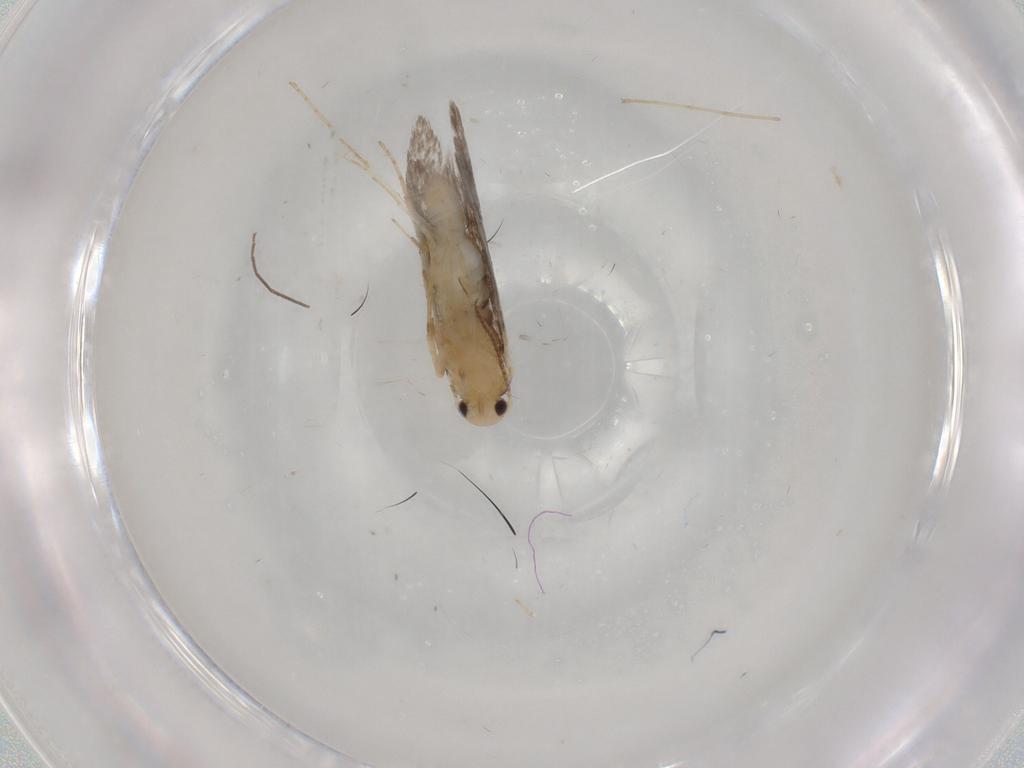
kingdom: Animalia
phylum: Arthropoda
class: Insecta
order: Lepidoptera
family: Schreckensteiniidae
